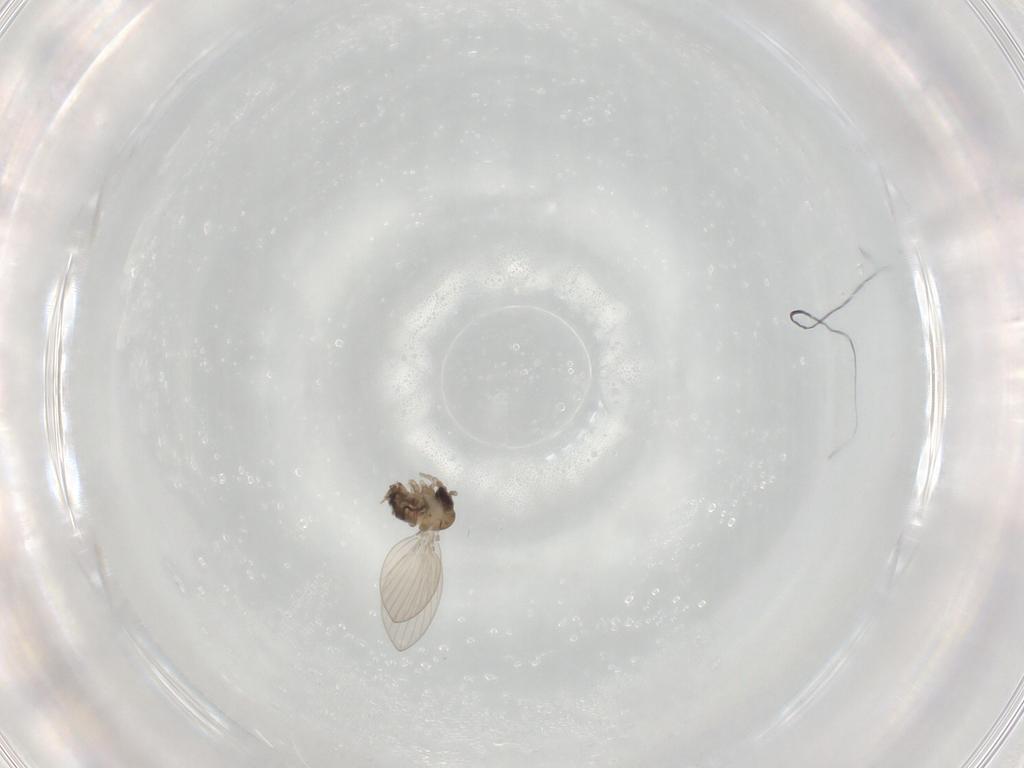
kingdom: Animalia
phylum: Arthropoda
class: Insecta
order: Diptera
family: Psychodidae
